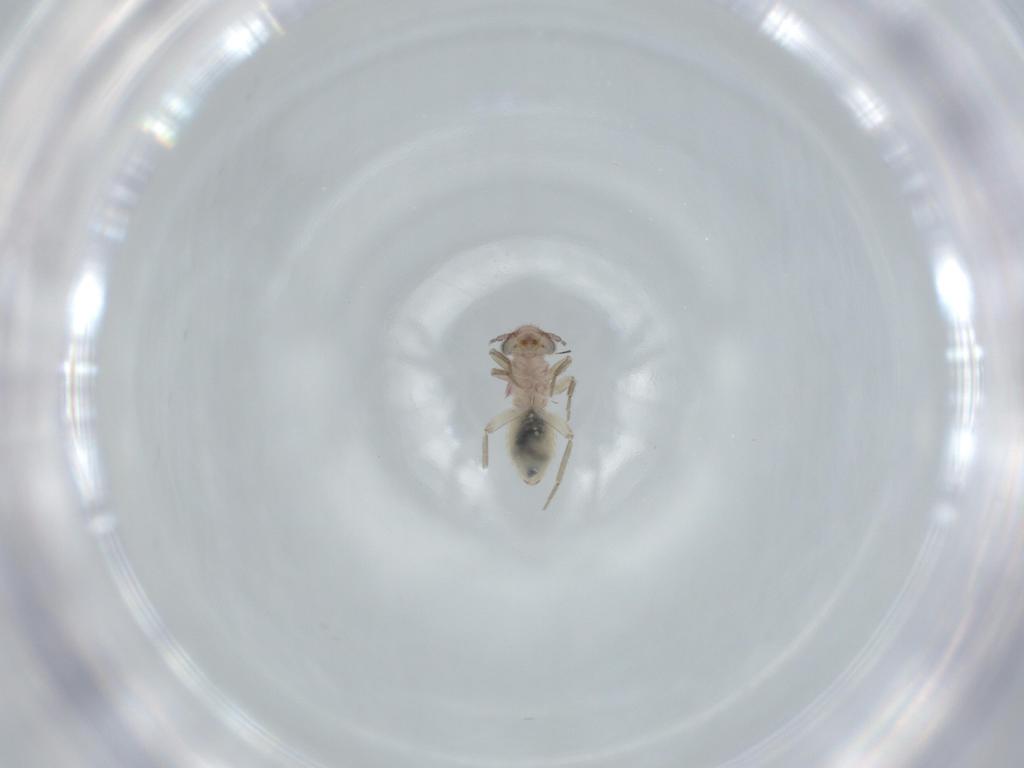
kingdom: Animalia
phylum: Arthropoda
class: Insecta
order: Psocodea
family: Lepidopsocidae
